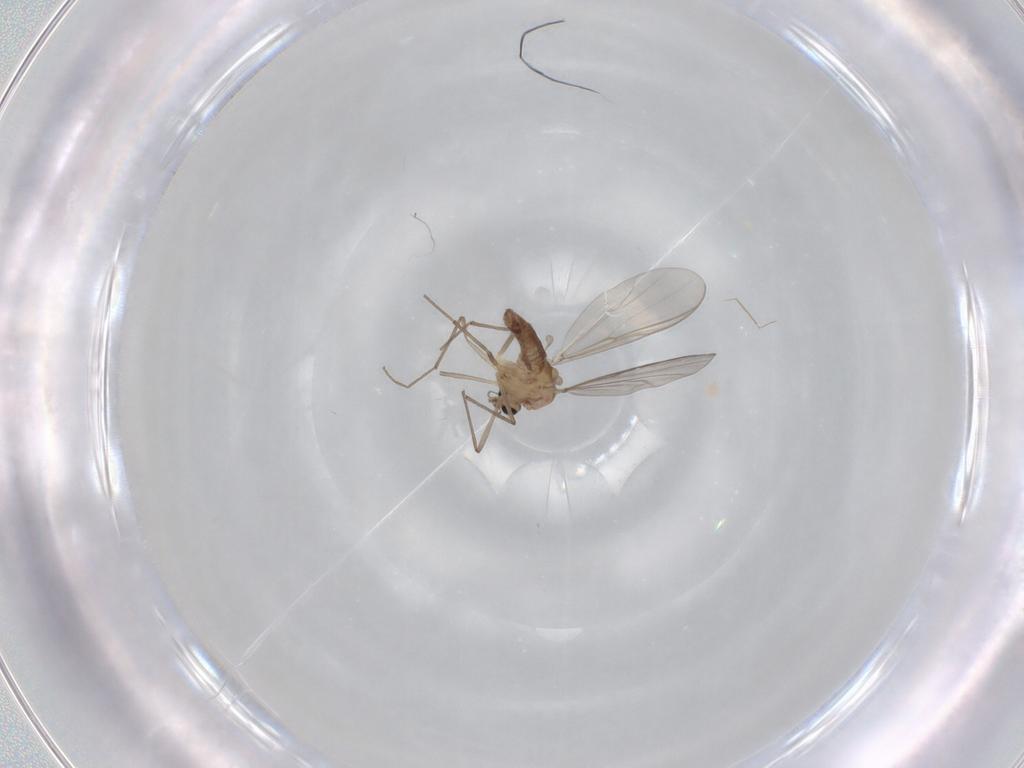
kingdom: Animalia
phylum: Arthropoda
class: Insecta
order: Diptera
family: Chironomidae
